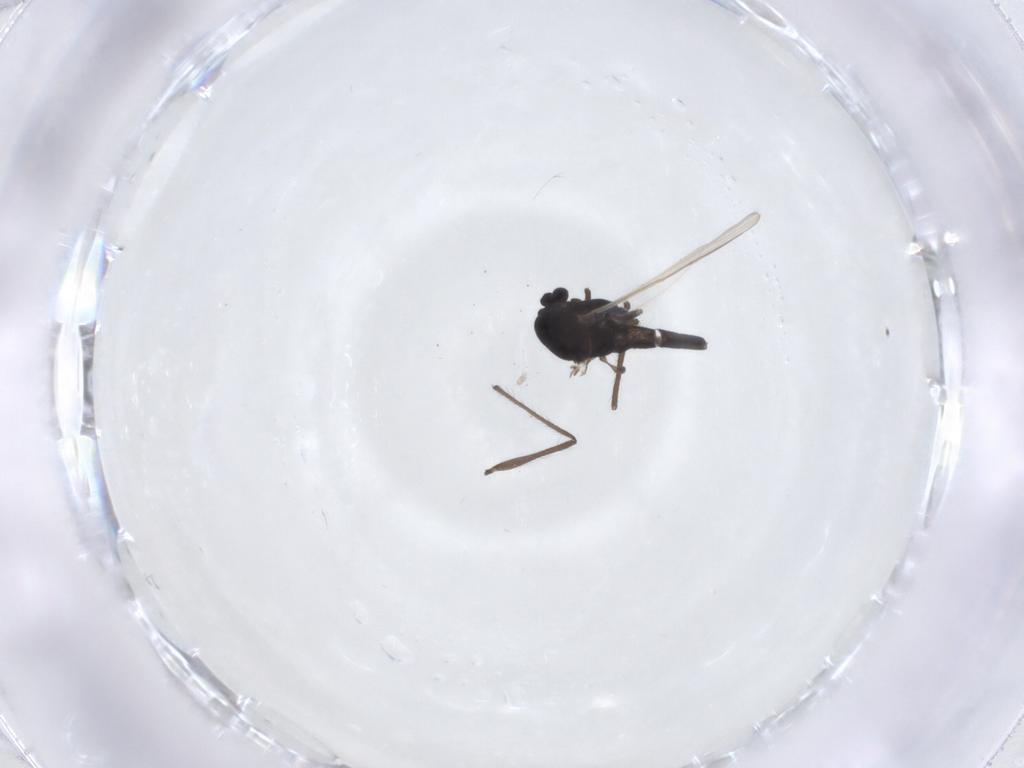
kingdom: Animalia
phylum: Arthropoda
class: Insecta
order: Diptera
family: Chironomidae
